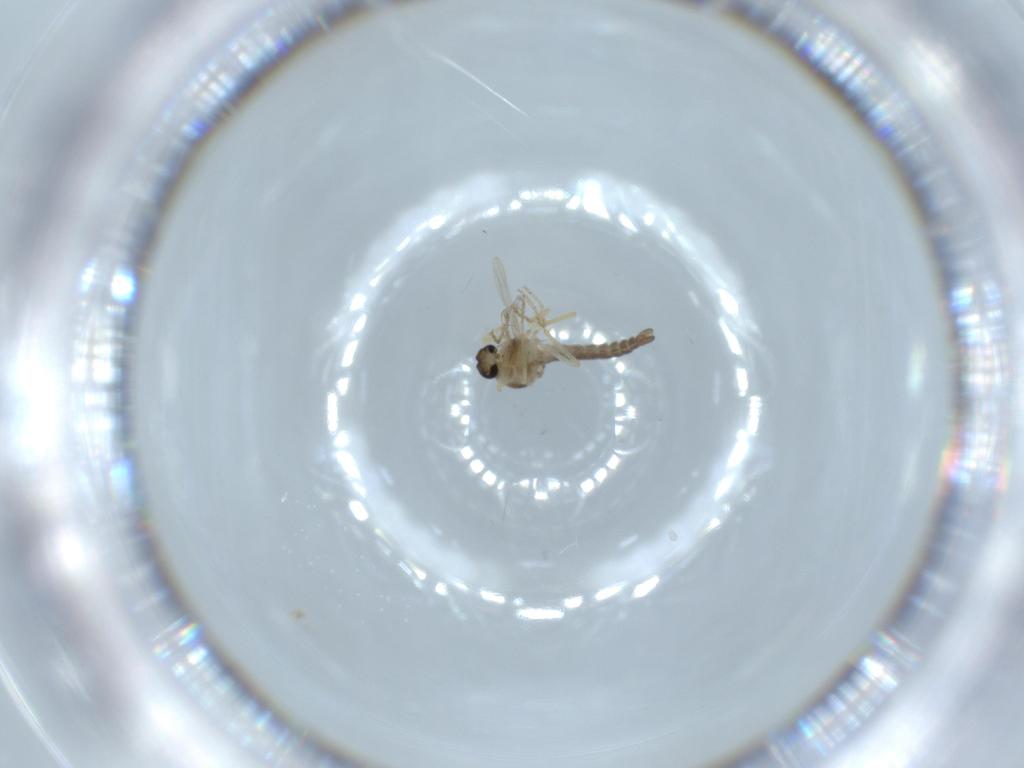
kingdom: Animalia
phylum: Arthropoda
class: Insecta
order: Diptera
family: Ceratopogonidae
